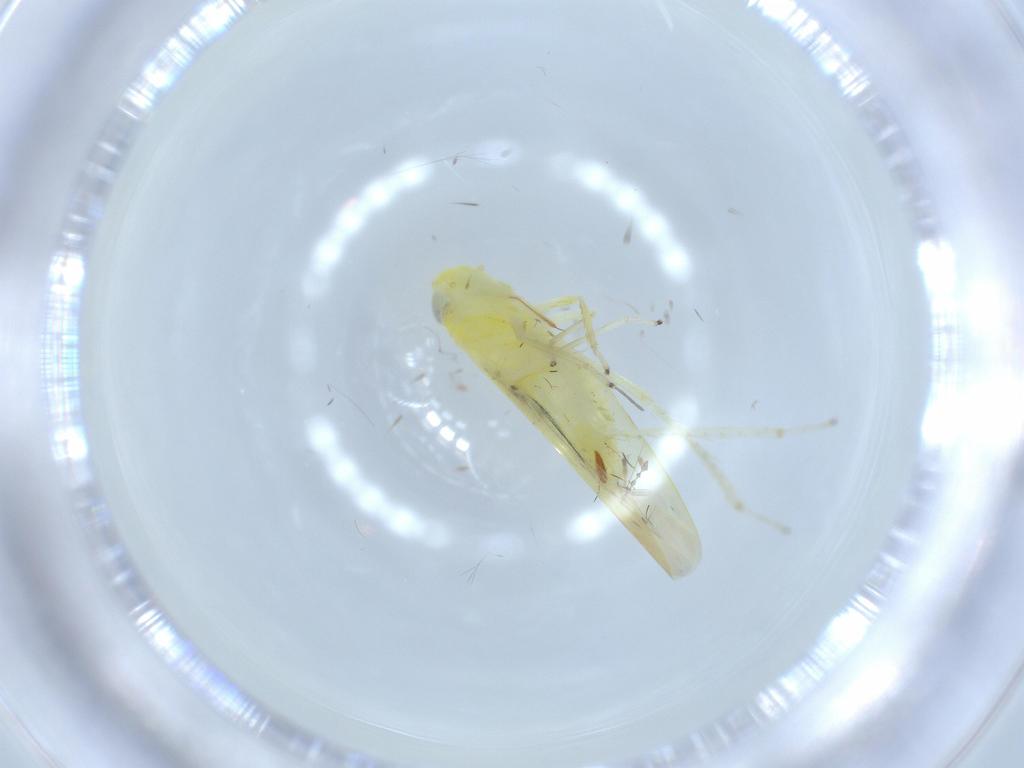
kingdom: Animalia
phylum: Arthropoda
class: Insecta
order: Hemiptera
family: Cicadellidae
